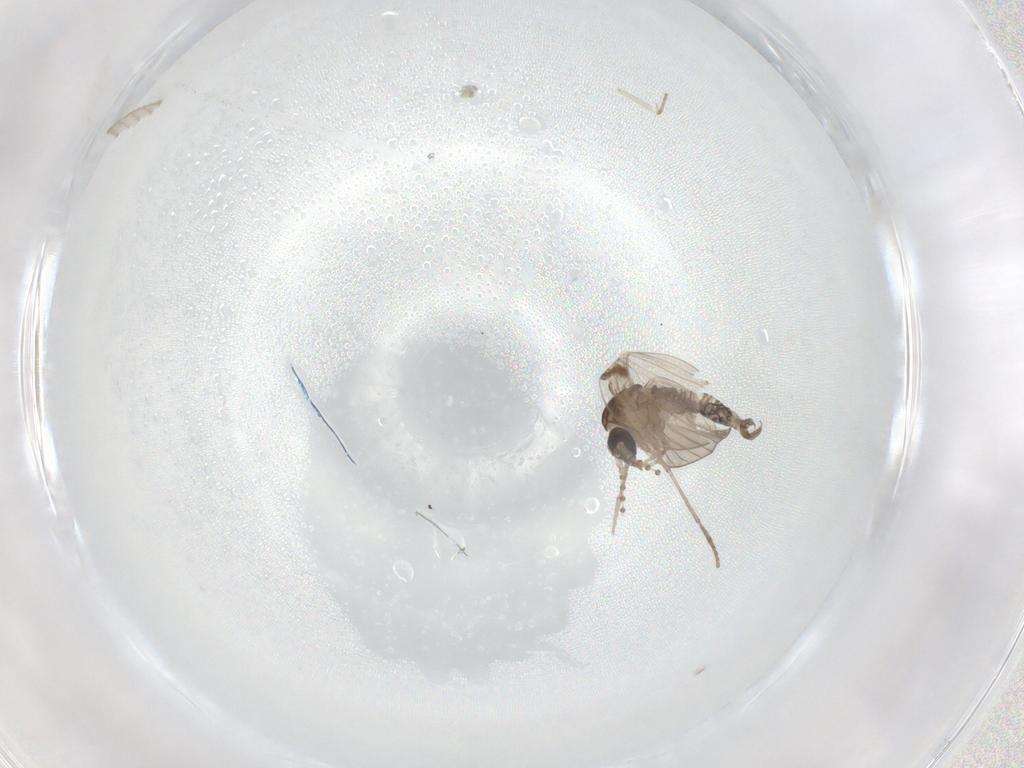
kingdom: Animalia
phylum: Arthropoda
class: Insecta
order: Diptera
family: Psychodidae
